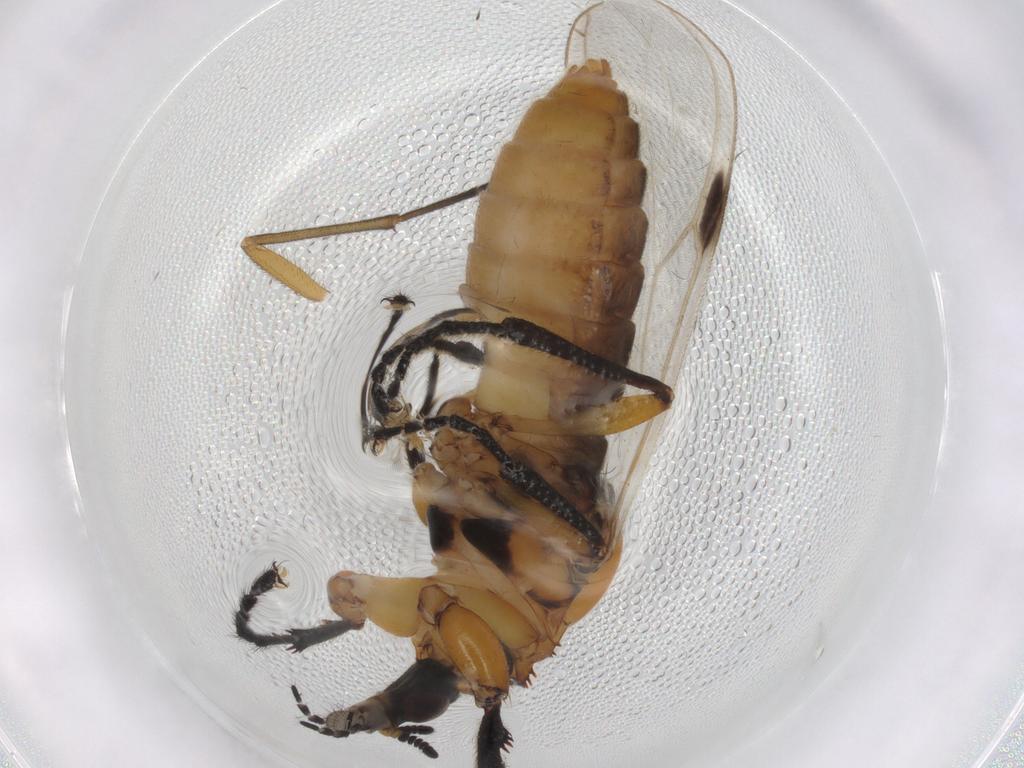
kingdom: Animalia
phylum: Arthropoda
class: Insecta
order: Diptera
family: Bibionidae
